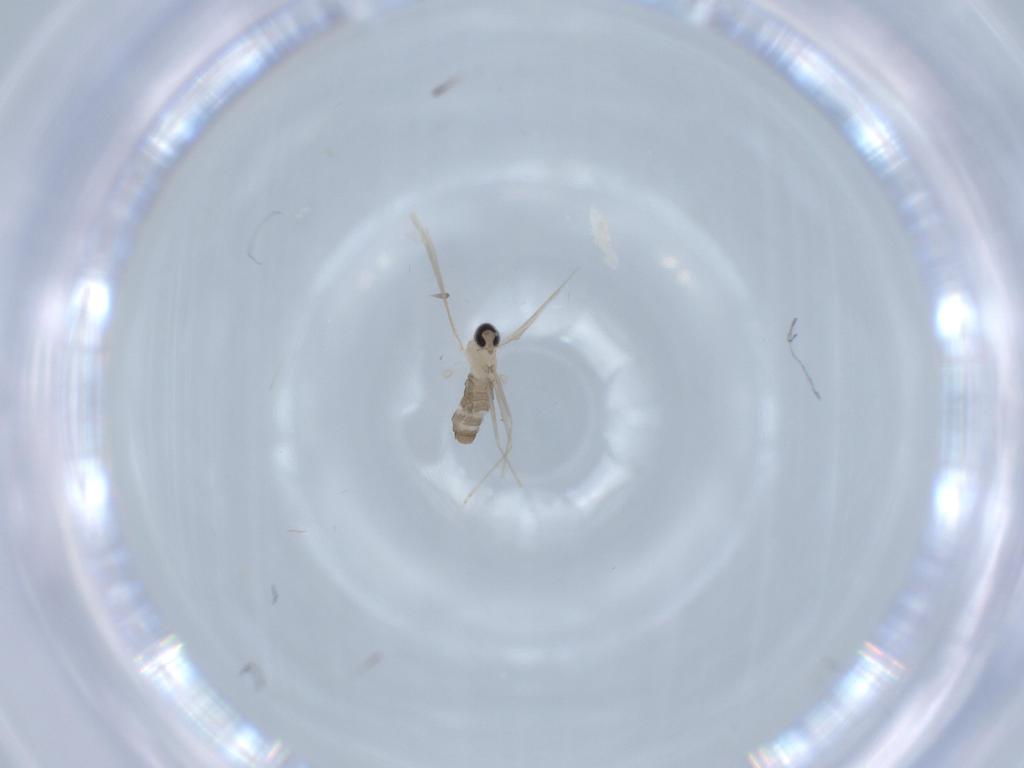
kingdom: Animalia
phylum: Arthropoda
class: Insecta
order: Diptera
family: Cecidomyiidae
